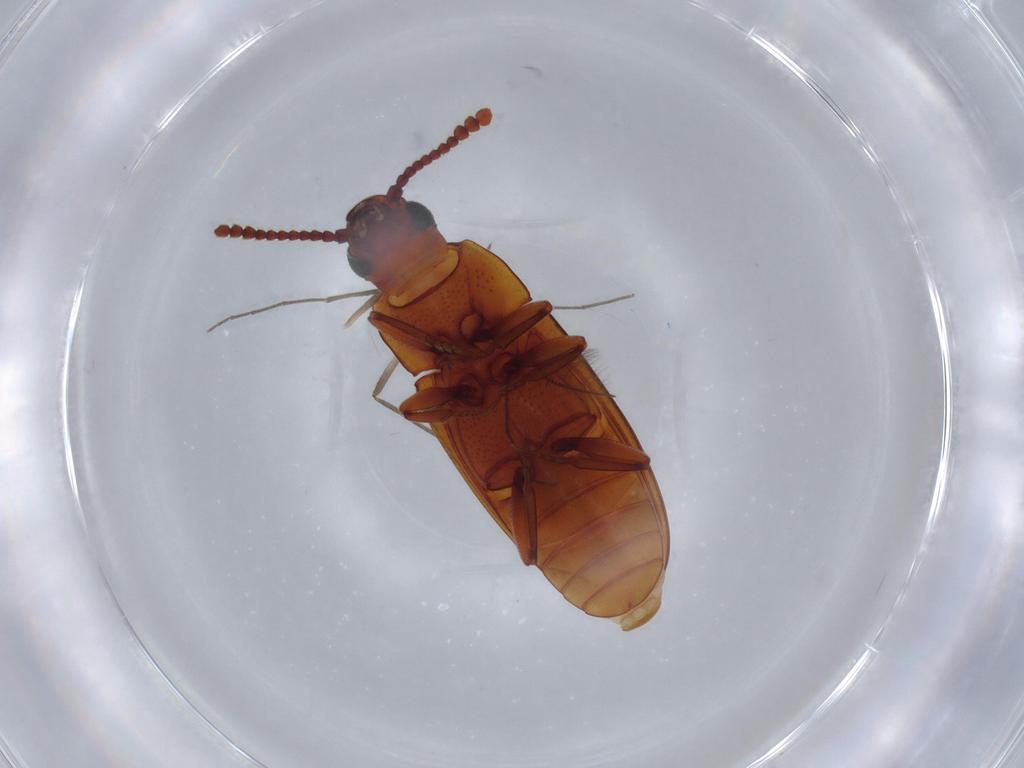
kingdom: Animalia
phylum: Arthropoda
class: Insecta
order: Coleoptera
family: Erotylidae
